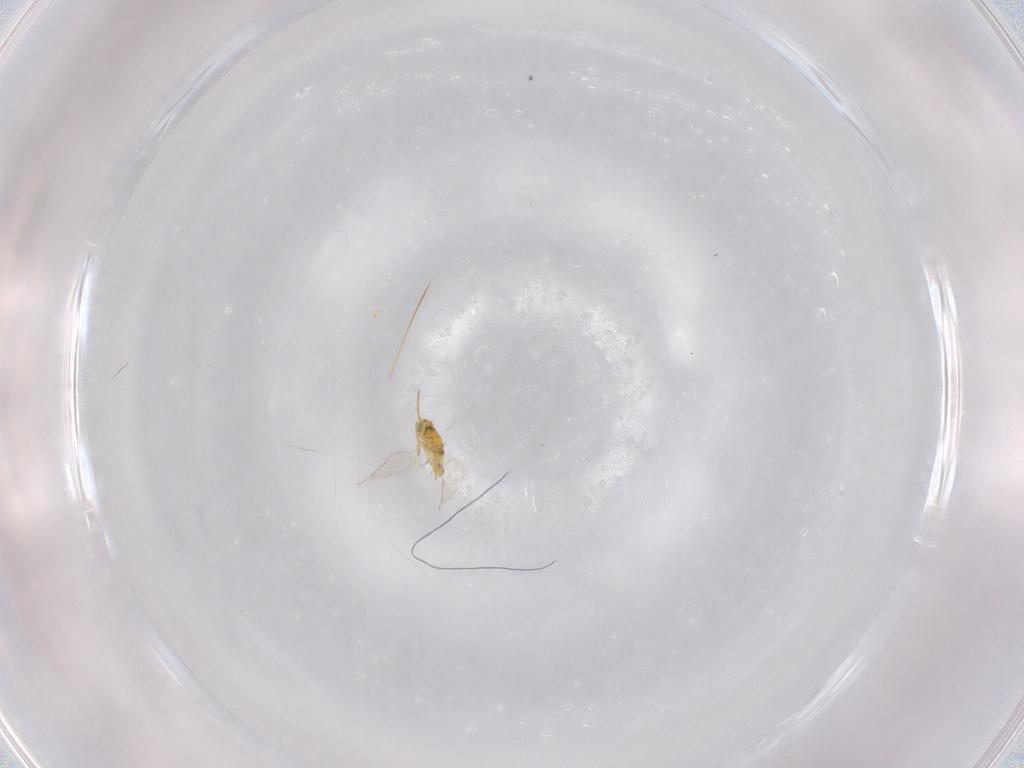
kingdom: Animalia
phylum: Arthropoda
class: Insecta
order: Hymenoptera
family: Aphelinidae
